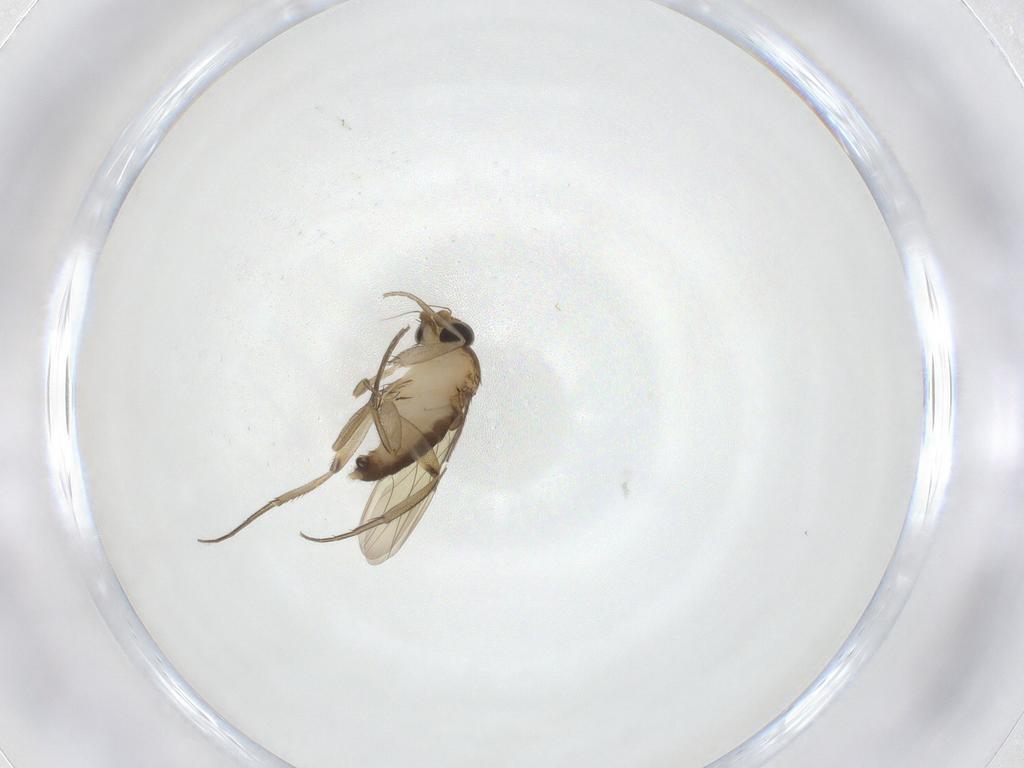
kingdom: Animalia
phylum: Arthropoda
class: Insecta
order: Diptera
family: Phoridae
